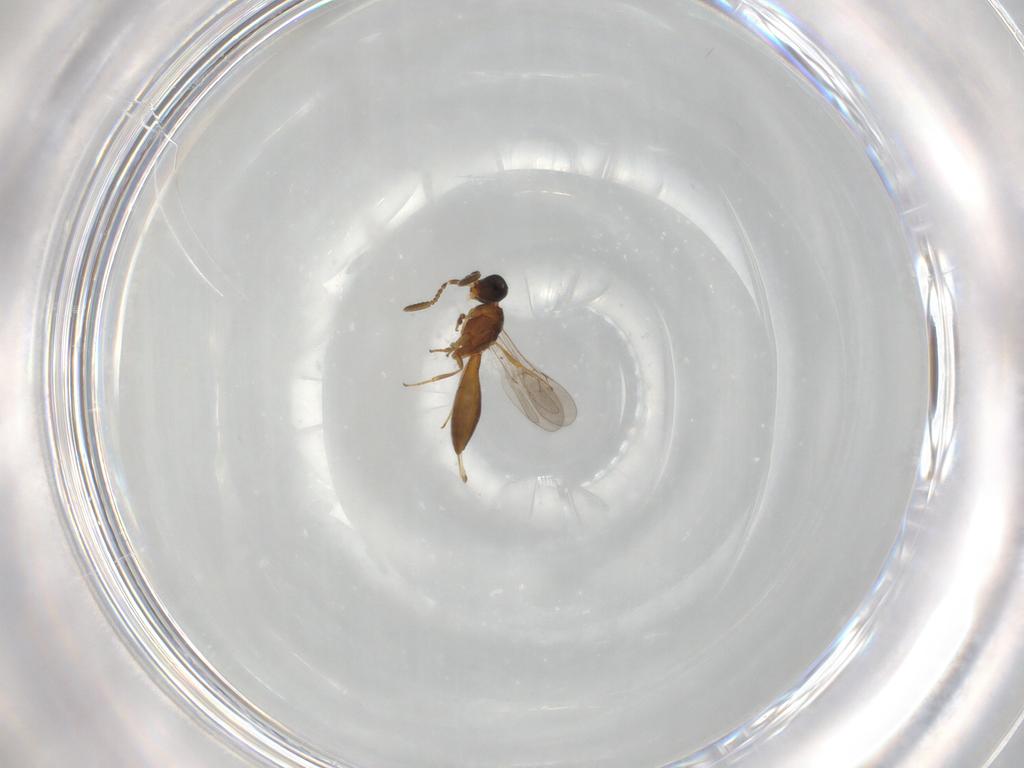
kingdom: Animalia
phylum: Arthropoda
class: Insecta
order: Hymenoptera
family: Scelionidae
